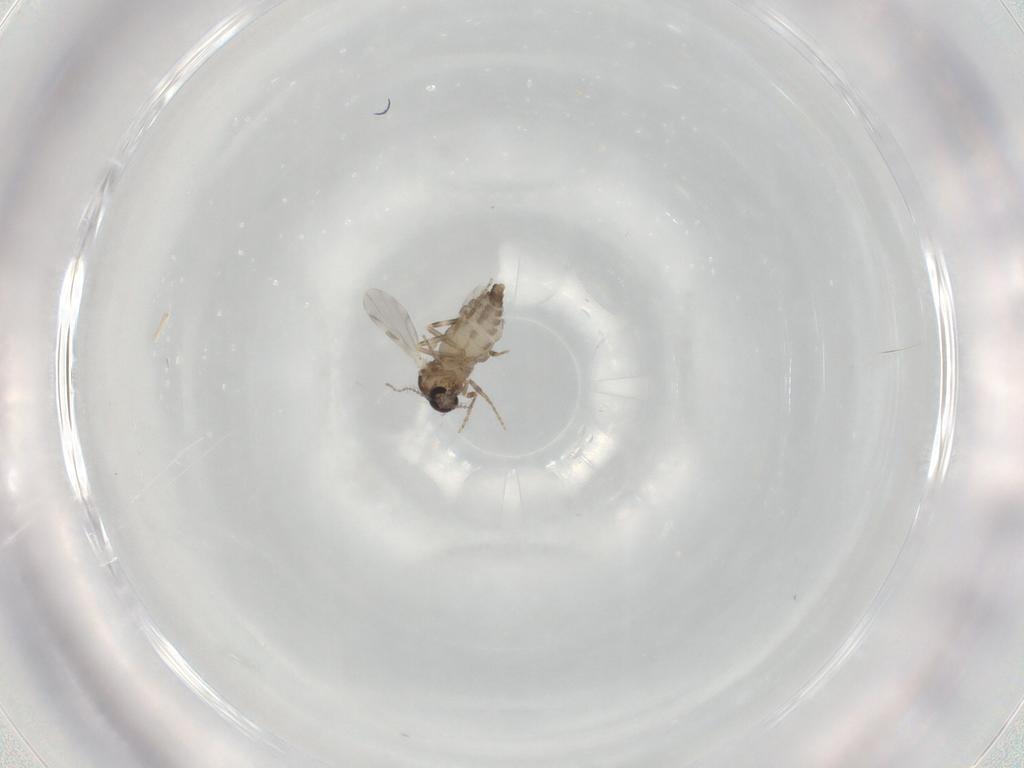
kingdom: Animalia
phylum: Arthropoda
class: Insecta
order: Diptera
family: Ceratopogonidae
